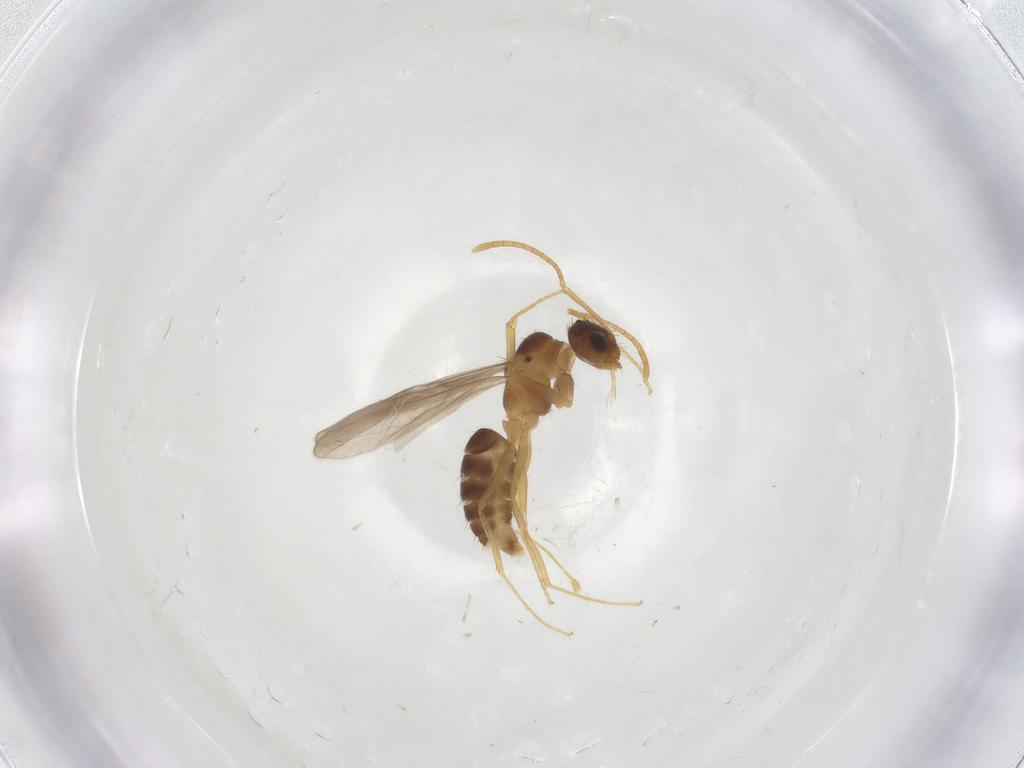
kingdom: Animalia
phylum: Arthropoda
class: Insecta
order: Hymenoptera
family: Formicidae
